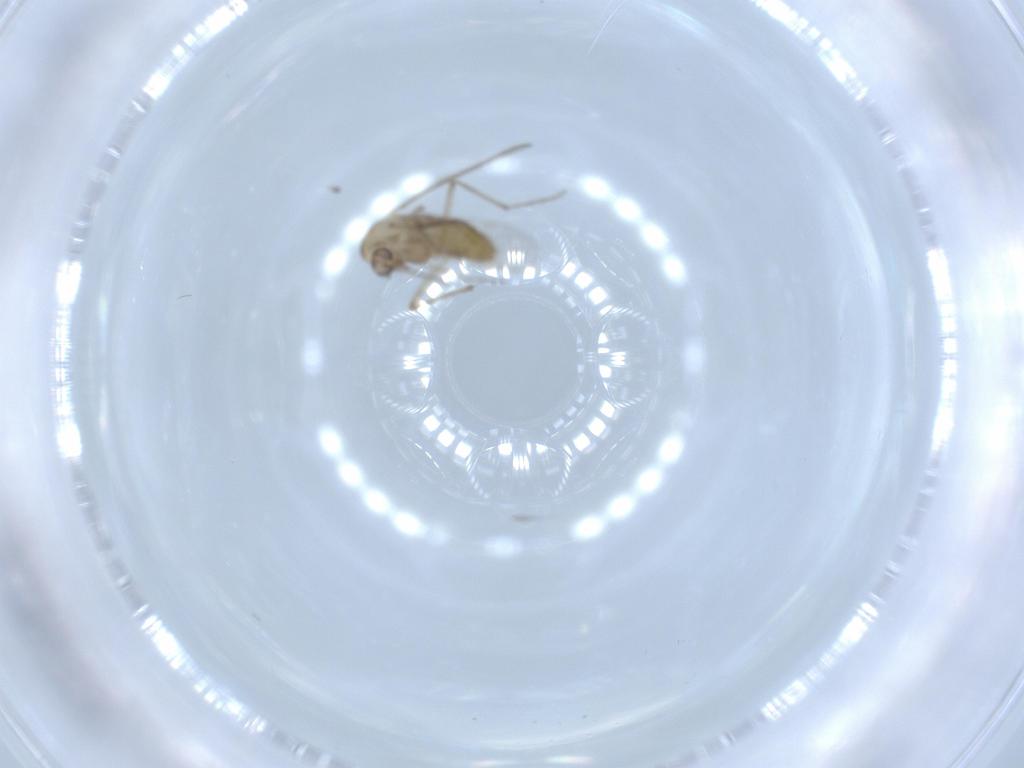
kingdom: Animalia
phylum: Arthropoda
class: Insecta
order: Diptera
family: Chironomidae
